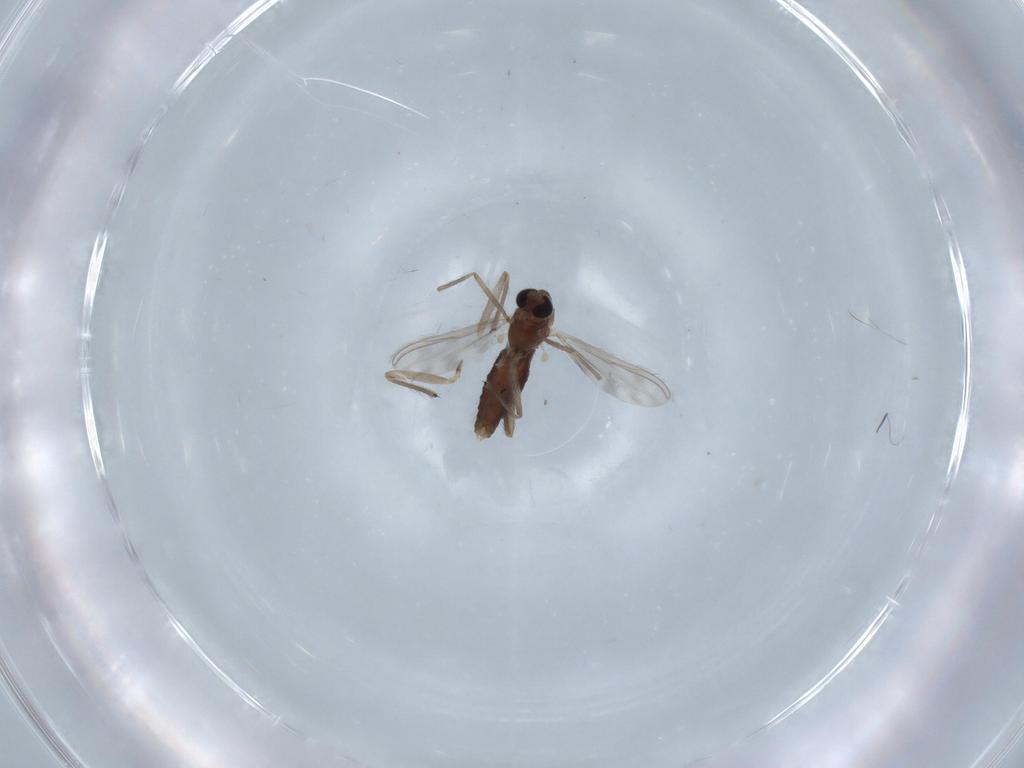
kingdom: Animalia
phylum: Arthropoda
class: Insecta
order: Diptera
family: Chironomidae
